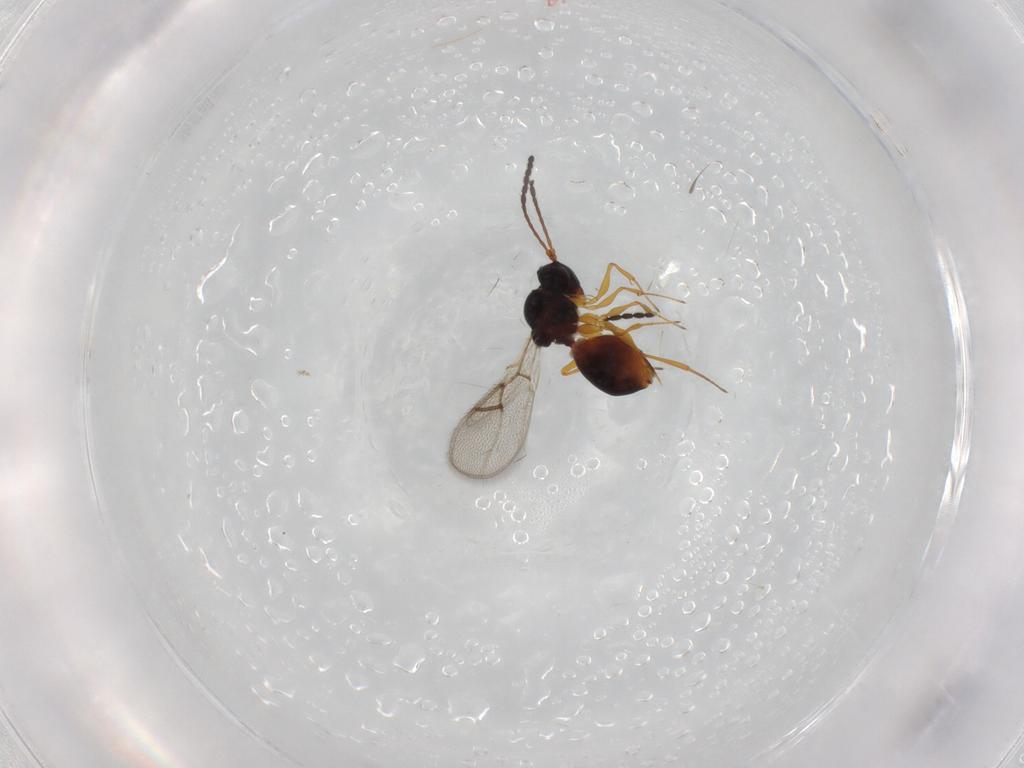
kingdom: Animalia
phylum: Arthropoda
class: Insecta
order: Hymenoptera
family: Figitidae
